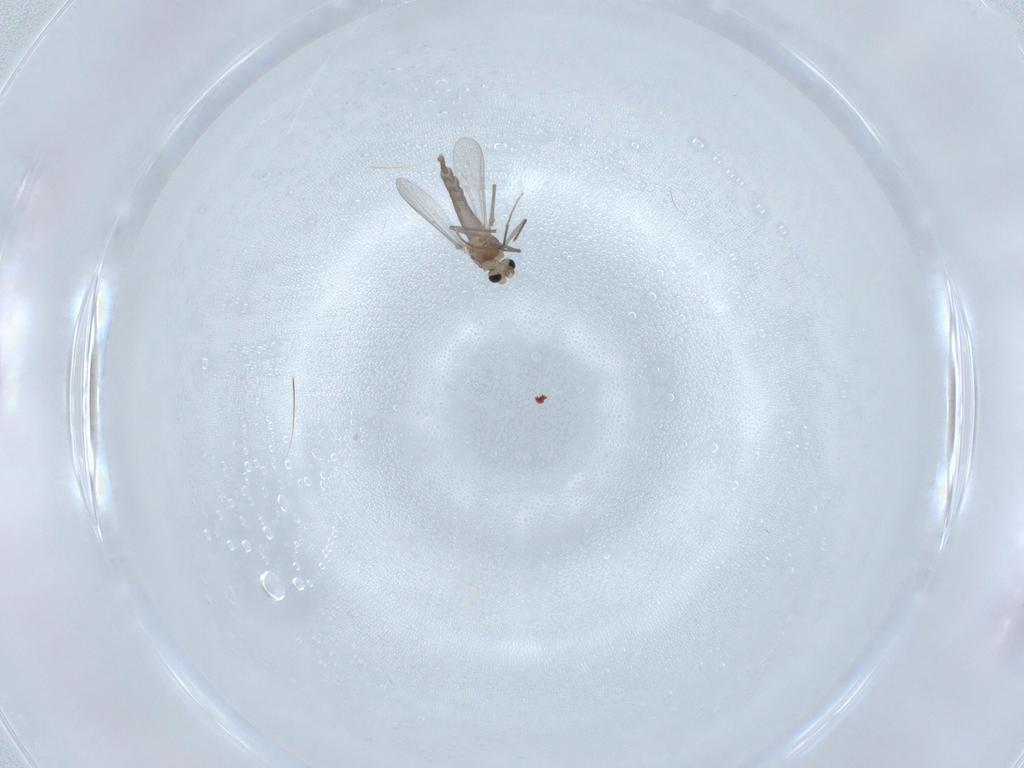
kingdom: Animalia
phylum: Arthropoda
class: Insecta
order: Diptera
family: Chironomidae
